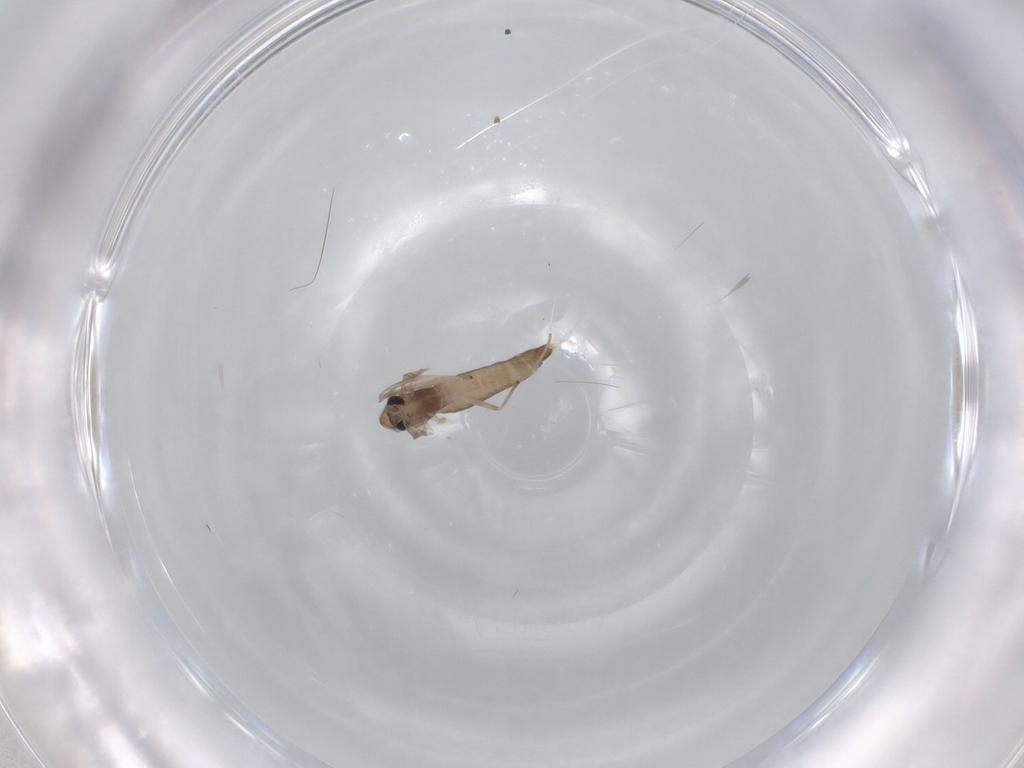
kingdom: Animalia
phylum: Arthropoda
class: Insecta
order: Diptera
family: Chironomidae
